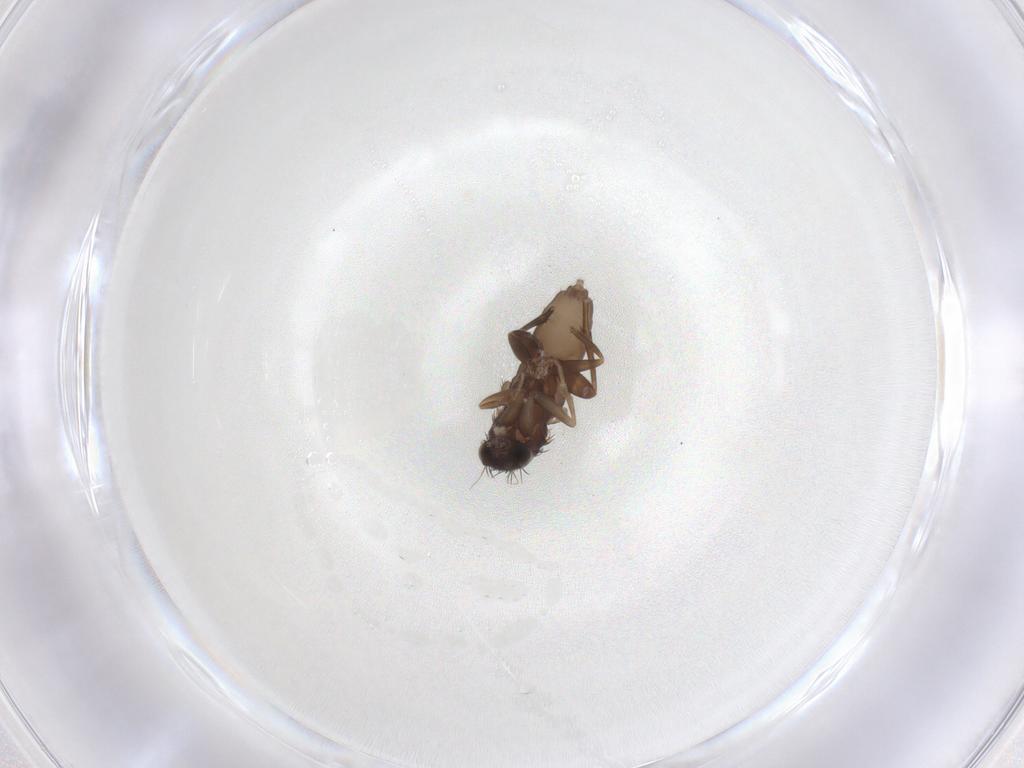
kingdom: Animalia
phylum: Arthropoda
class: Insecta
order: Diptera
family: Phoridae
